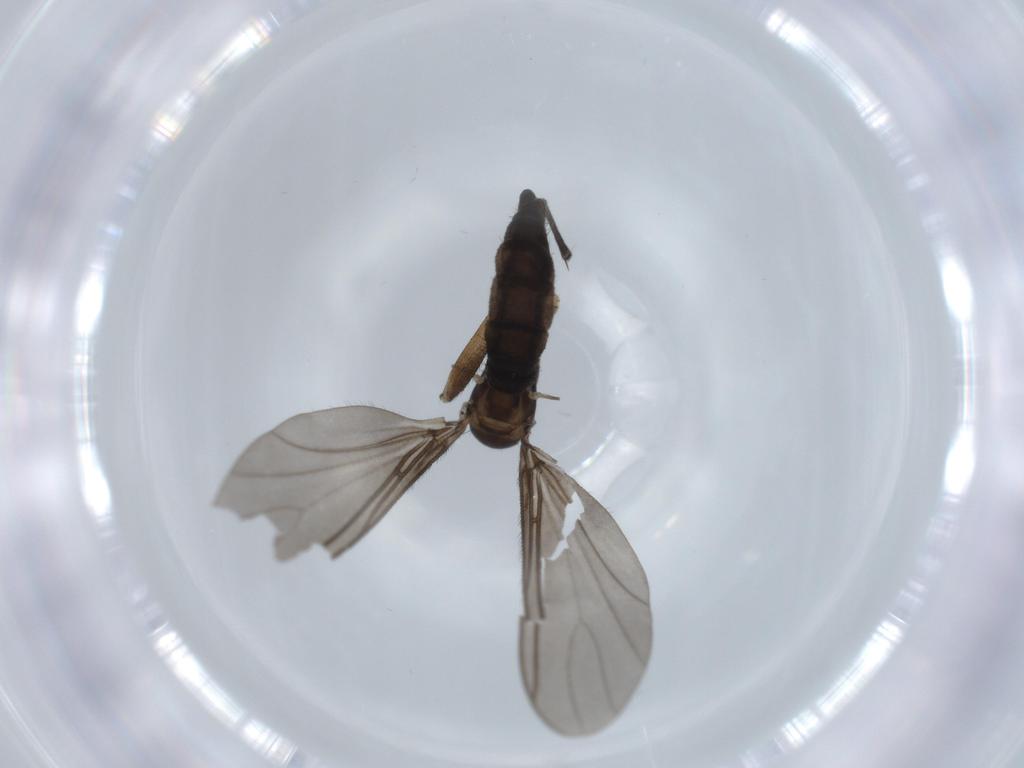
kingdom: Animalia
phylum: Arthropoda
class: Insecta
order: Diptera
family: Sciaridae
